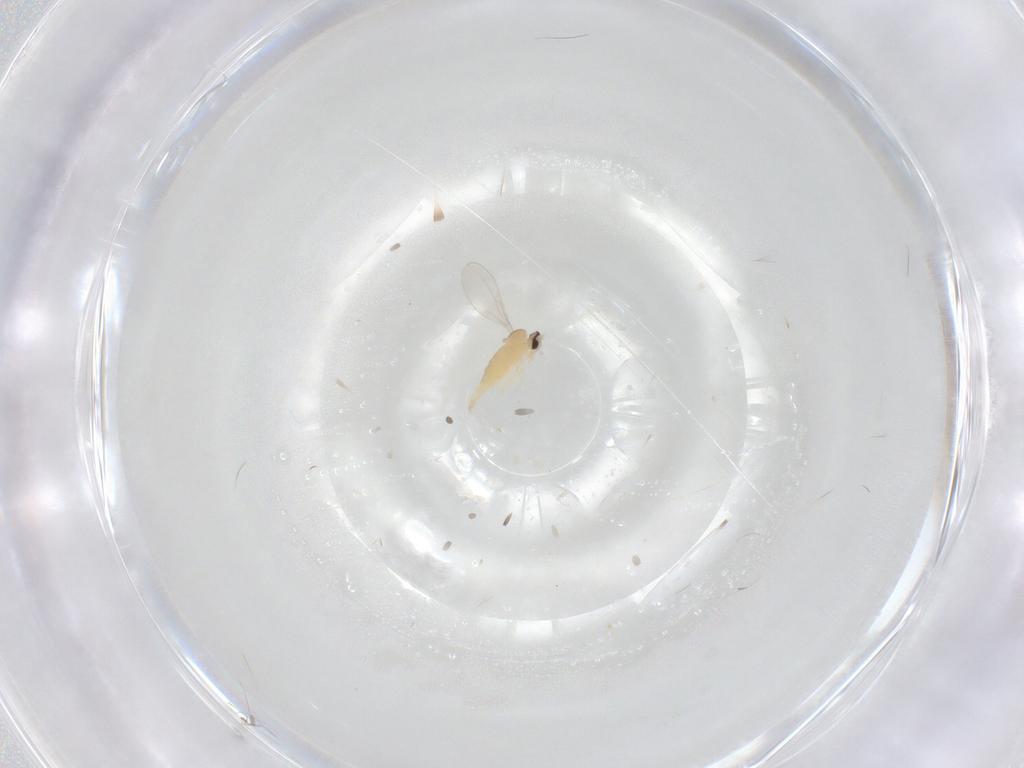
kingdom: Animalia
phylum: Arthropoda
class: Insecta
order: Diptera
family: Cecidomyiidae
